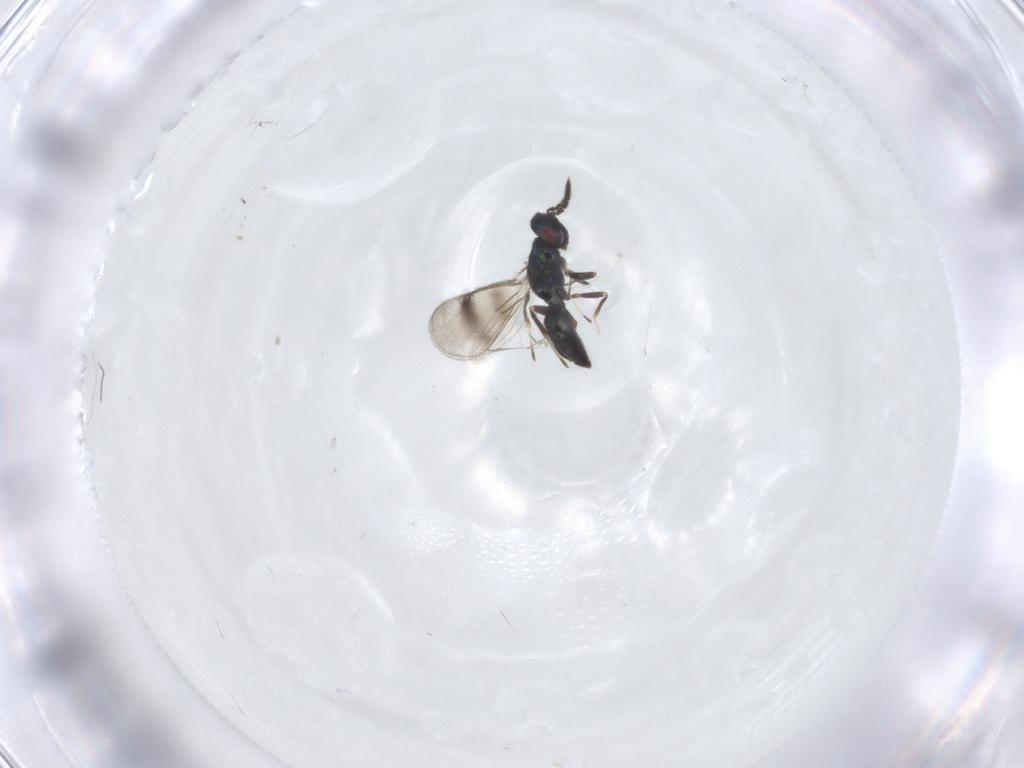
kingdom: Animalia
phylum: Arthropoda
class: Insecta
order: Hymenoptera
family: Eulophidae
